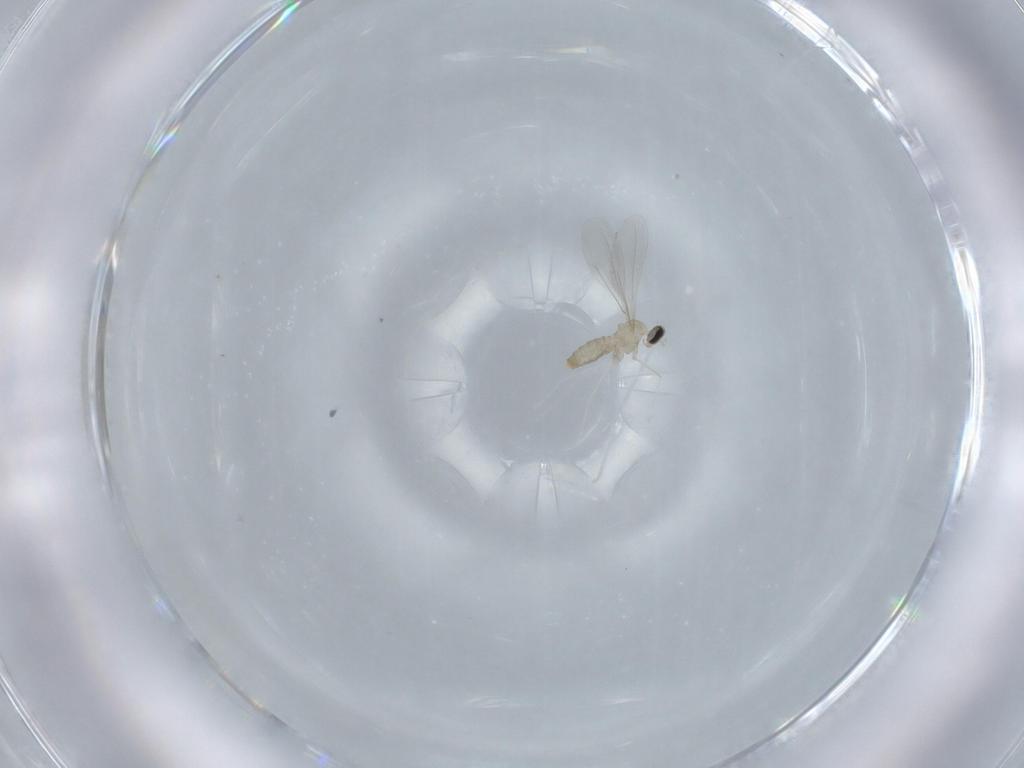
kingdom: Animalia
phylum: Arthropoda
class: Insecta
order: Diptera
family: Cecidomyiidae
